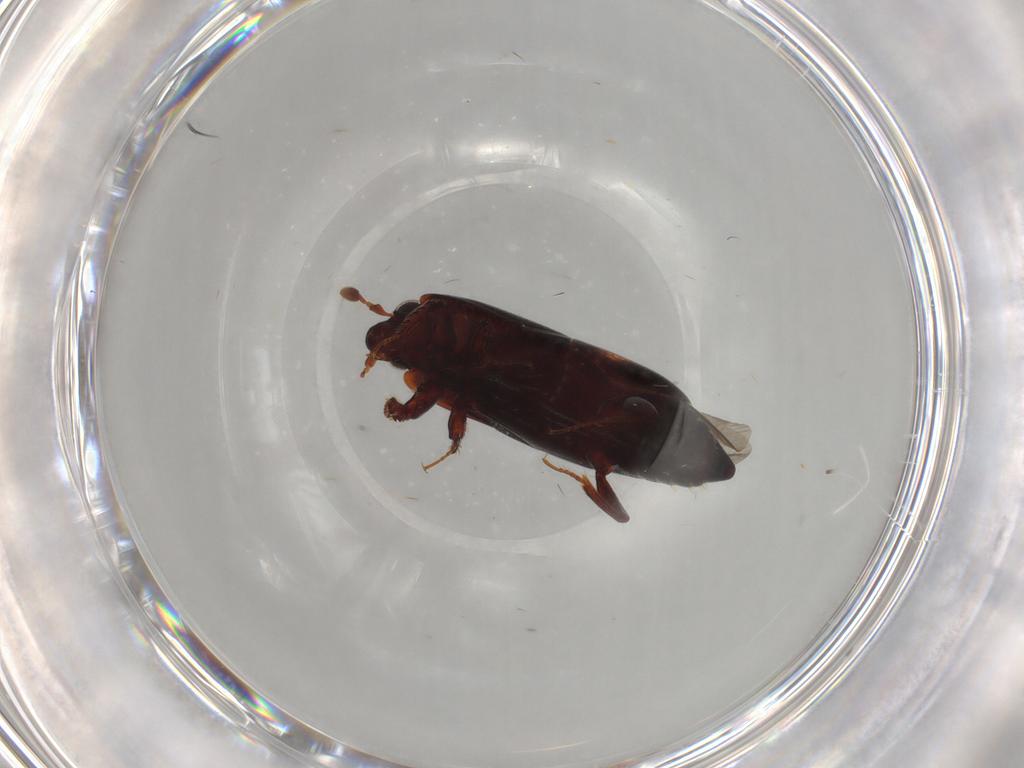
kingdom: Animalia
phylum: Arthropoda
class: Insecta
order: Coleoptera
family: Histeridae
